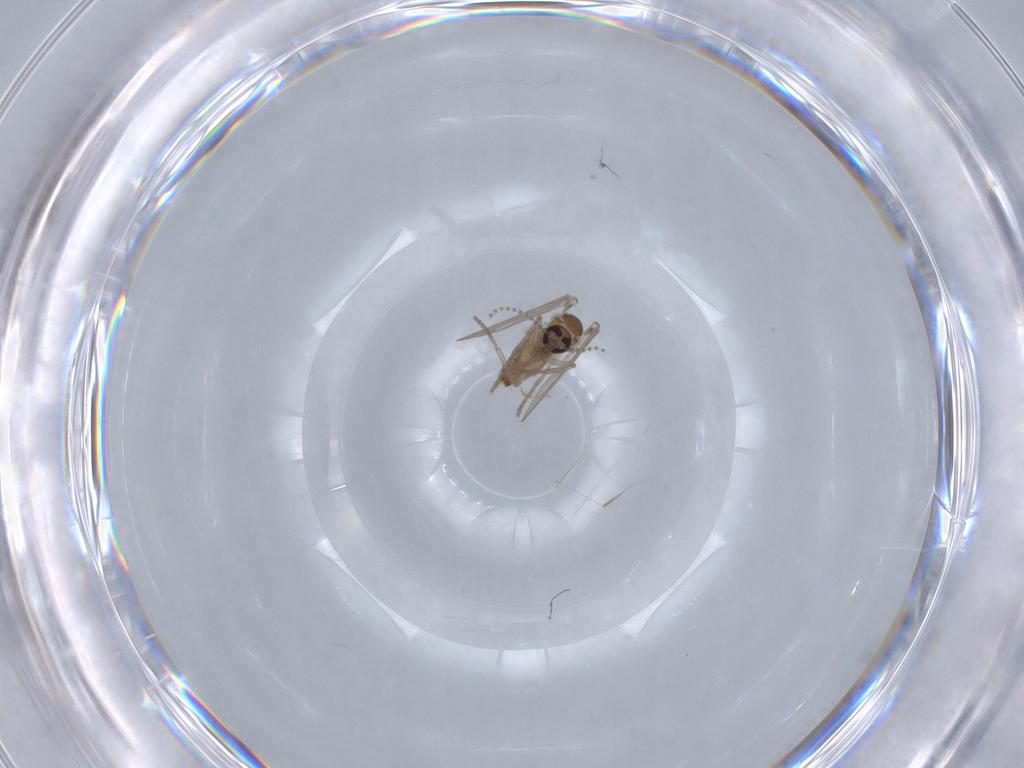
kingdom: Animalia
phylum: Arthropoda
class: Insecta
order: Diptera
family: Psychodidae
